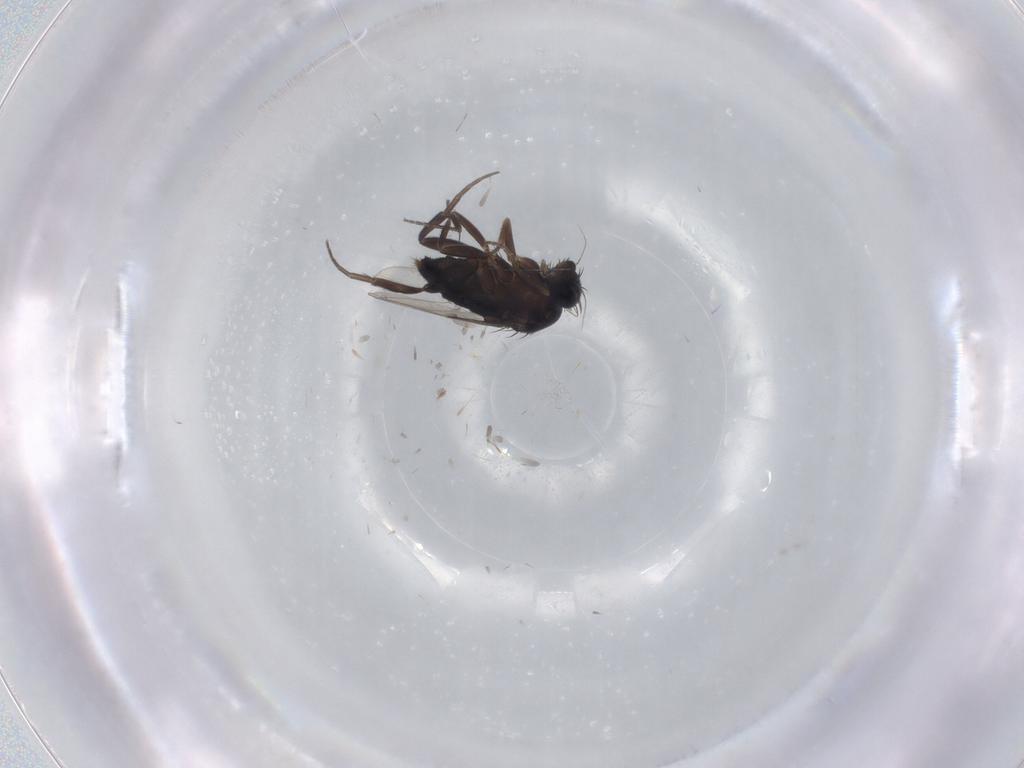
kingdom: Animalia
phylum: Arthropoda
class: Insecta
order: Diptera
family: Phoridae
